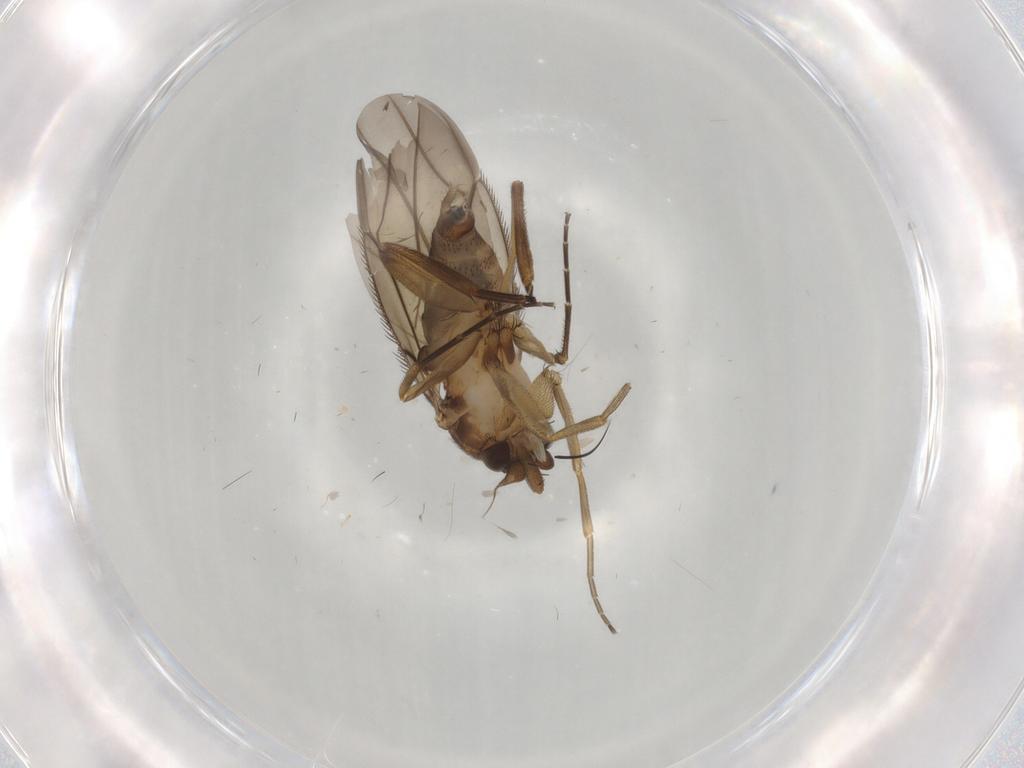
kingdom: Animalia
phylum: Arthropoda
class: Insecta
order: Diptera
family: Phoridae
